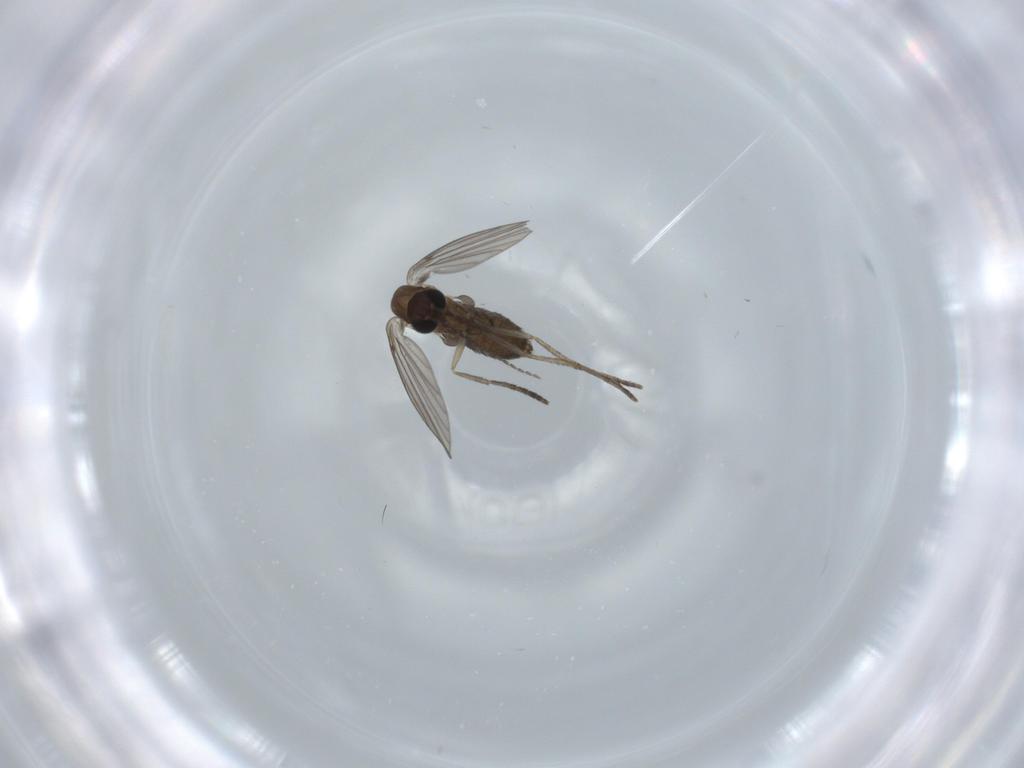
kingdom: Animalia
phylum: Arthropoda
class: Insecta
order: Diptera
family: Psychodidae
